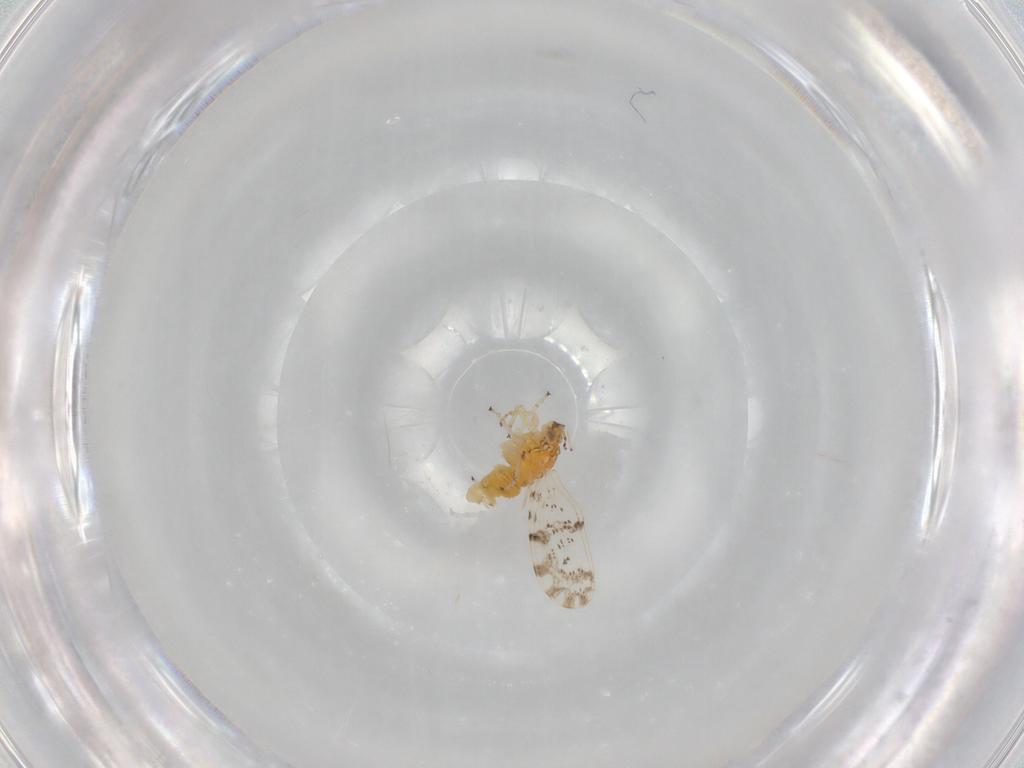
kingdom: Animalia
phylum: Arthropoda
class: Insecta
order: Hemiptera
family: Psylloidea_incertae_sedis
